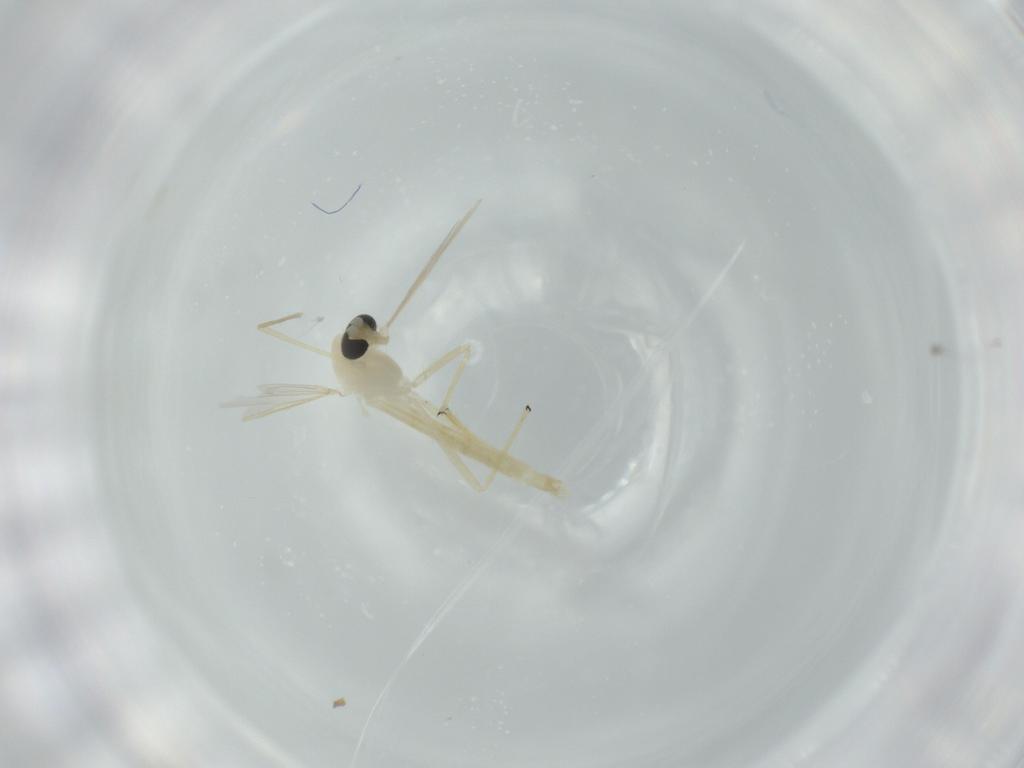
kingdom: Animalia
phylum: Arthropoda
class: Insecta
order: Diptera
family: Chironomidae
